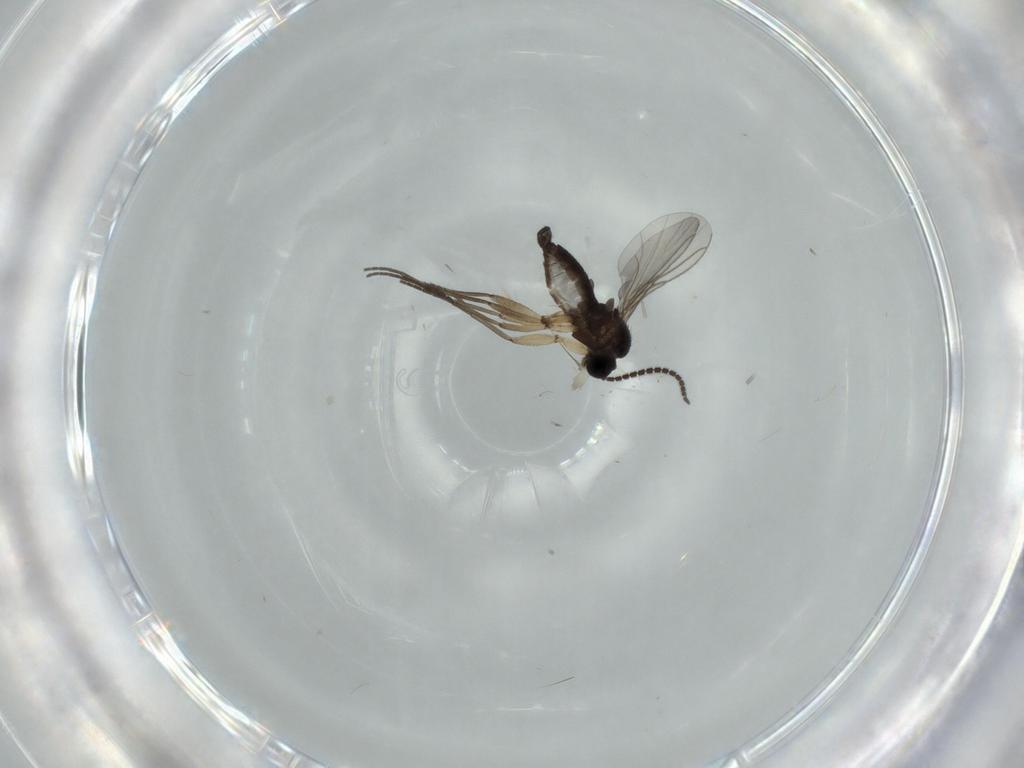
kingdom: Animalia
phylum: Arthropoda
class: Insecta
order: Diptera
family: Sciaridae
